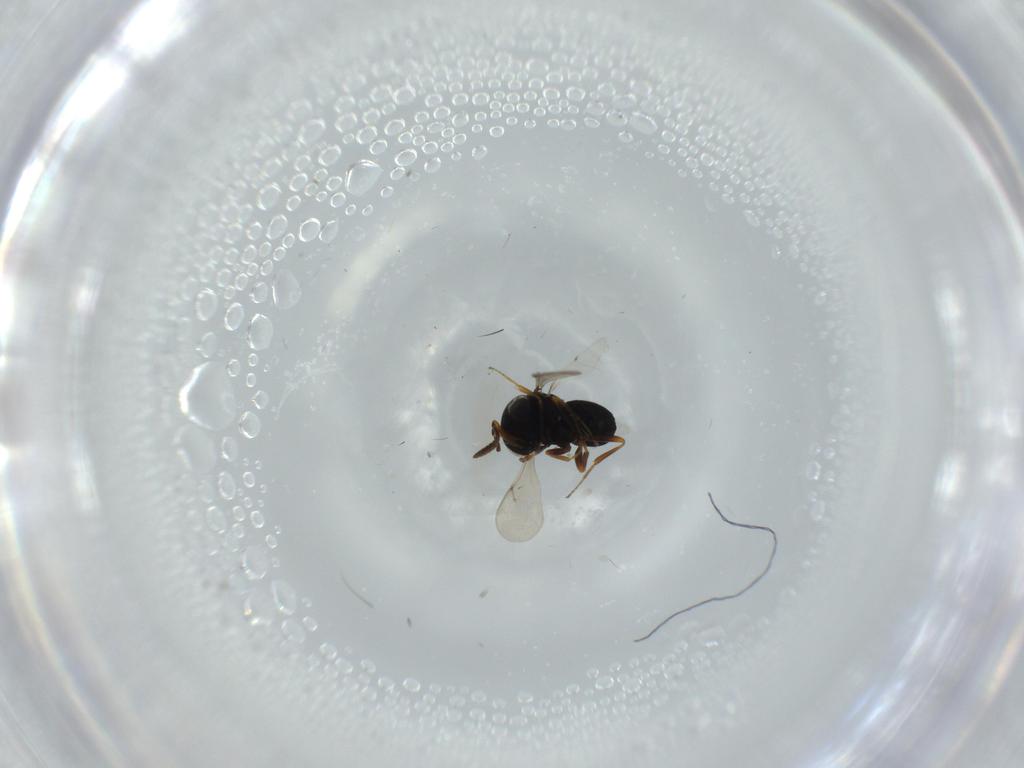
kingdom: Animalia
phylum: Arthropoda
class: Insecta
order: Hymenoptera
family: Scelionidae
